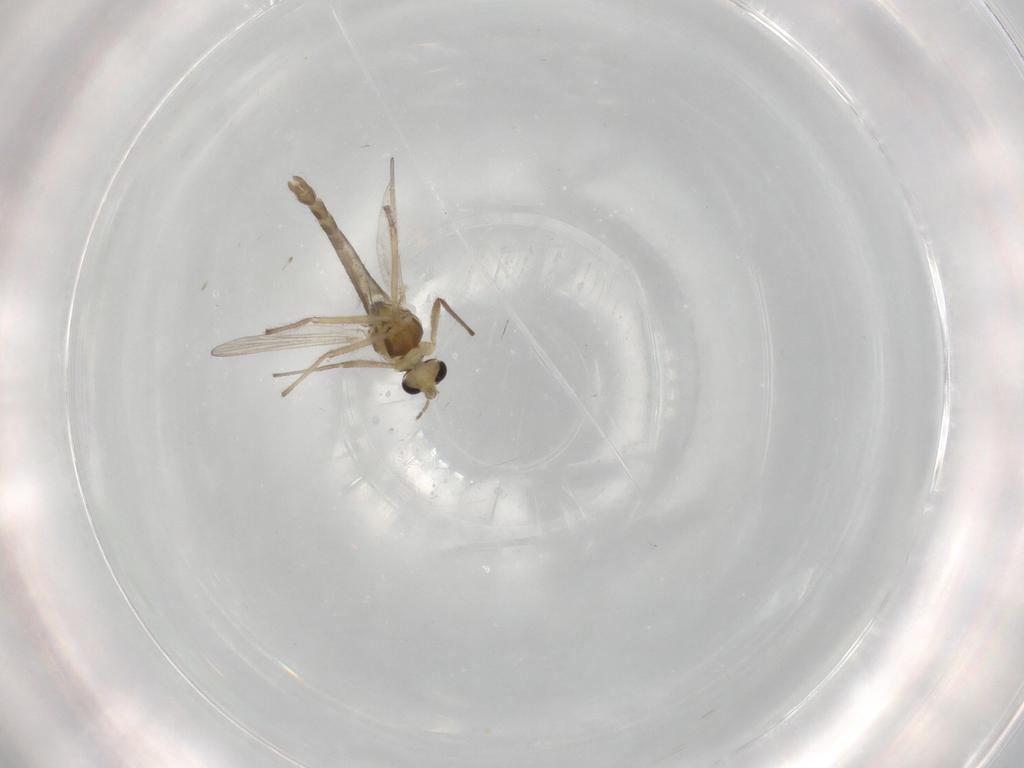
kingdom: Animalia
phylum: Arthropoda
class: Insecta
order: Diptera
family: Chironomidae
